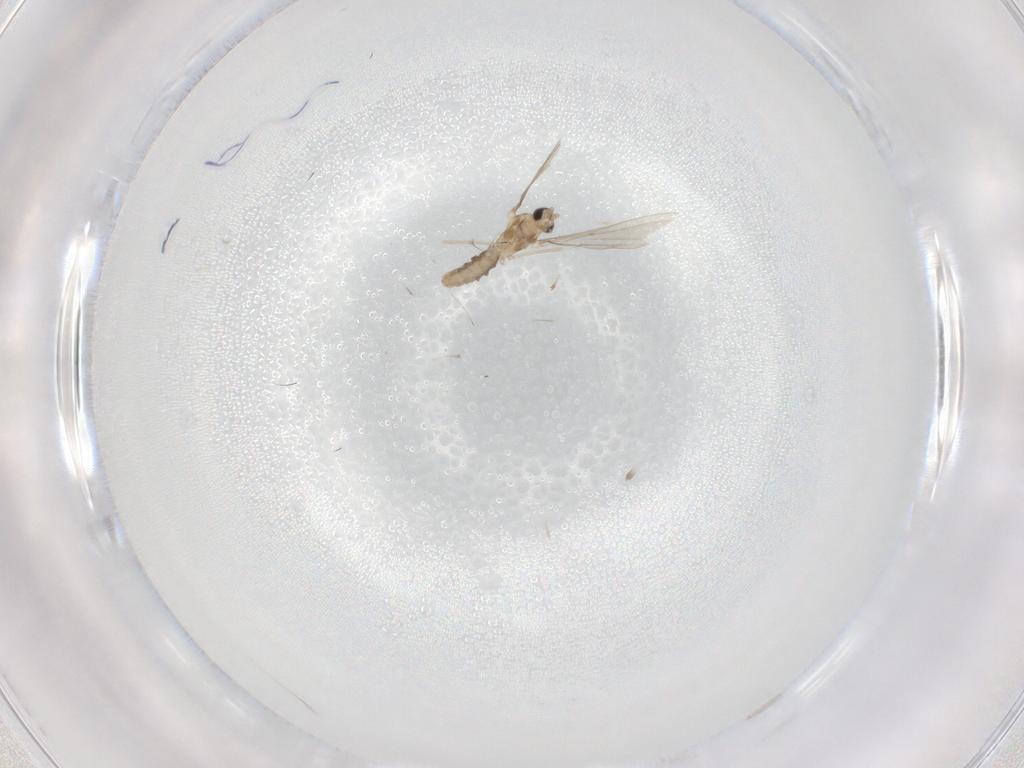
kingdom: Animalia
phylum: Arthropoda
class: Insecta
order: Diptera
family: Cecidomyiidae
